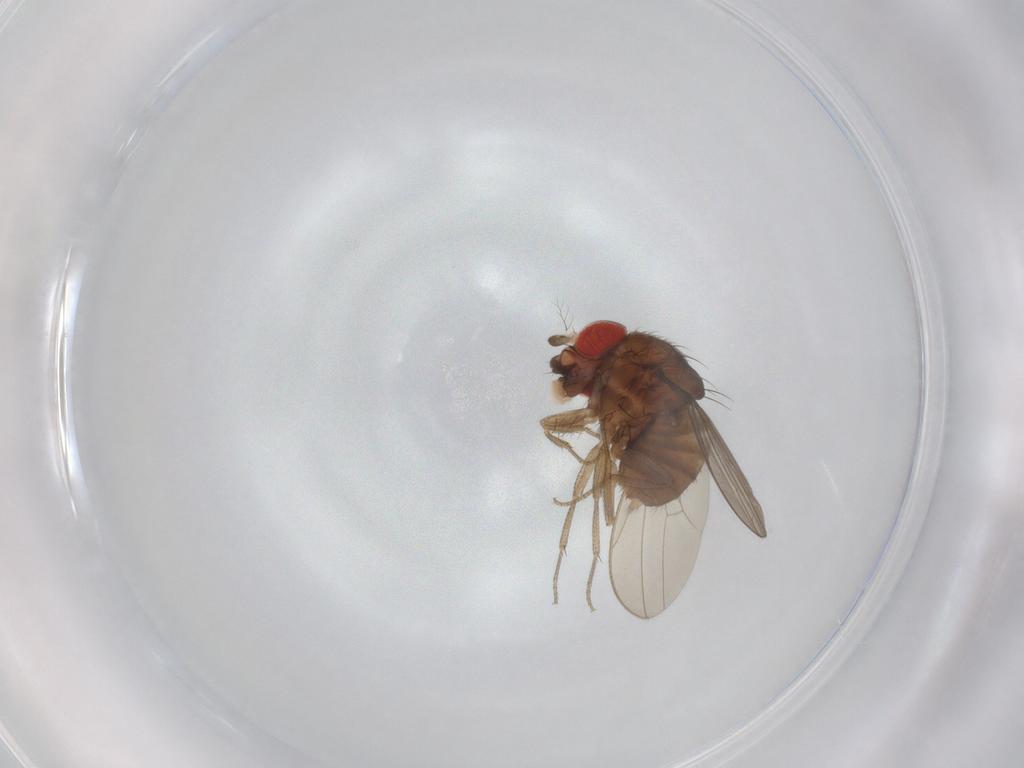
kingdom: Animalia
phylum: Arthropoda
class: Insecta
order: Diptera
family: Drosophilidae
